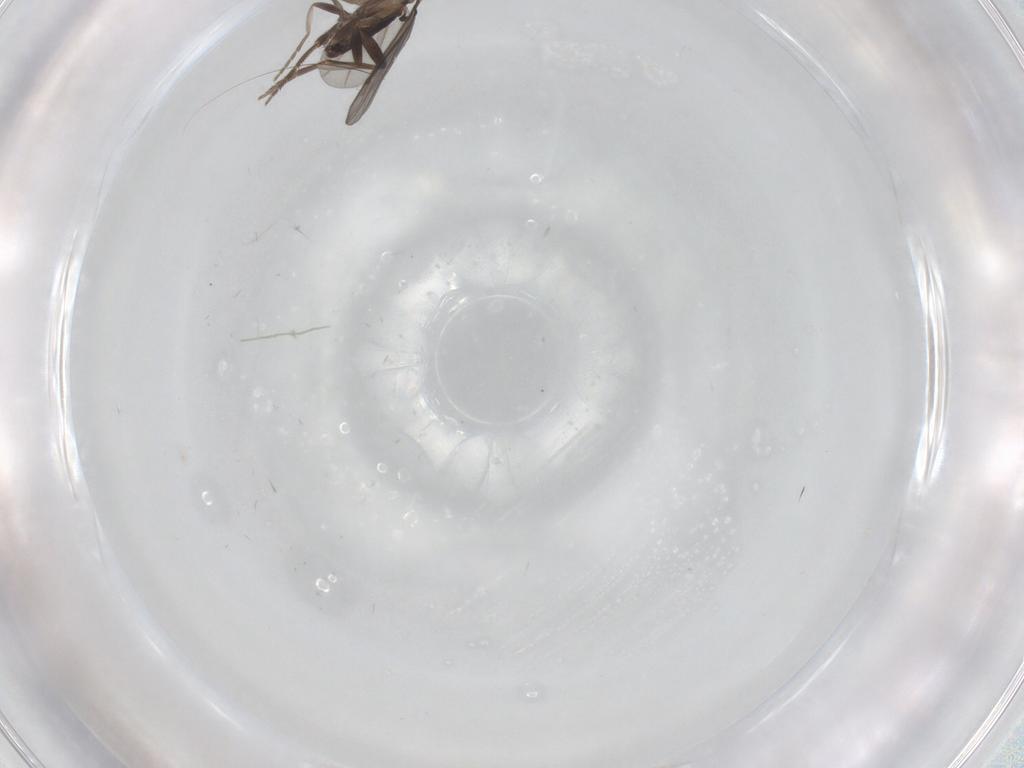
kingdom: Animalia
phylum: Arthropoda
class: Insecta
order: Diptera
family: Phoridae
